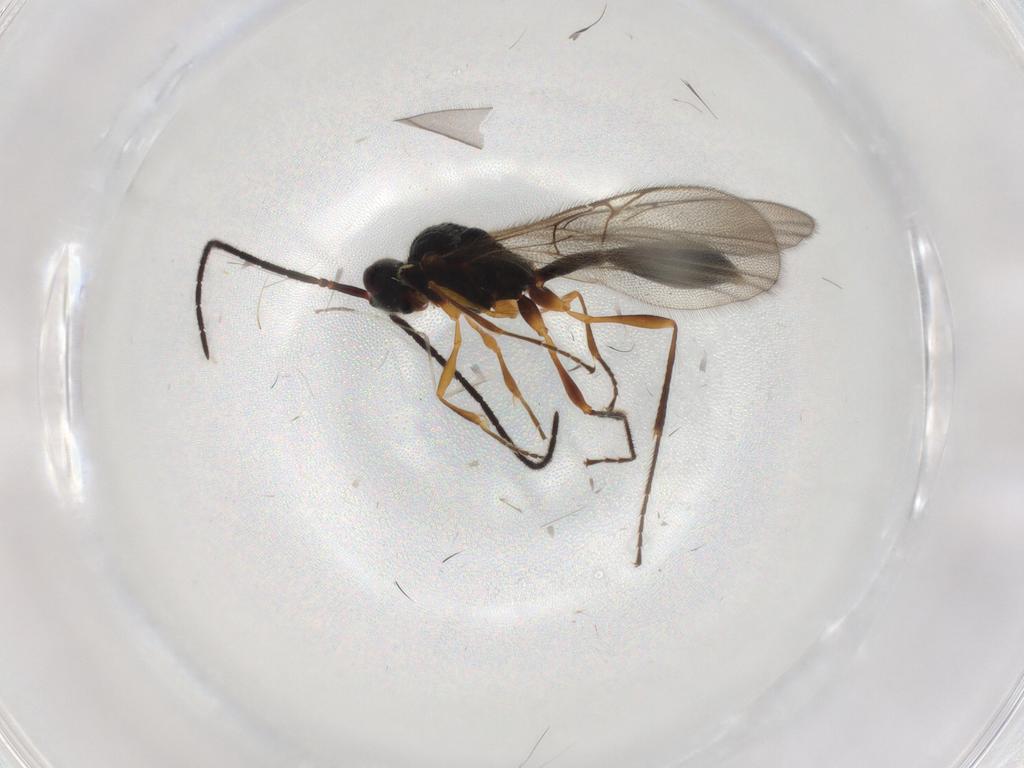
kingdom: Animalia
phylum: Arthropoda
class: Insecta
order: Hymenoptera
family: Diapriidae
